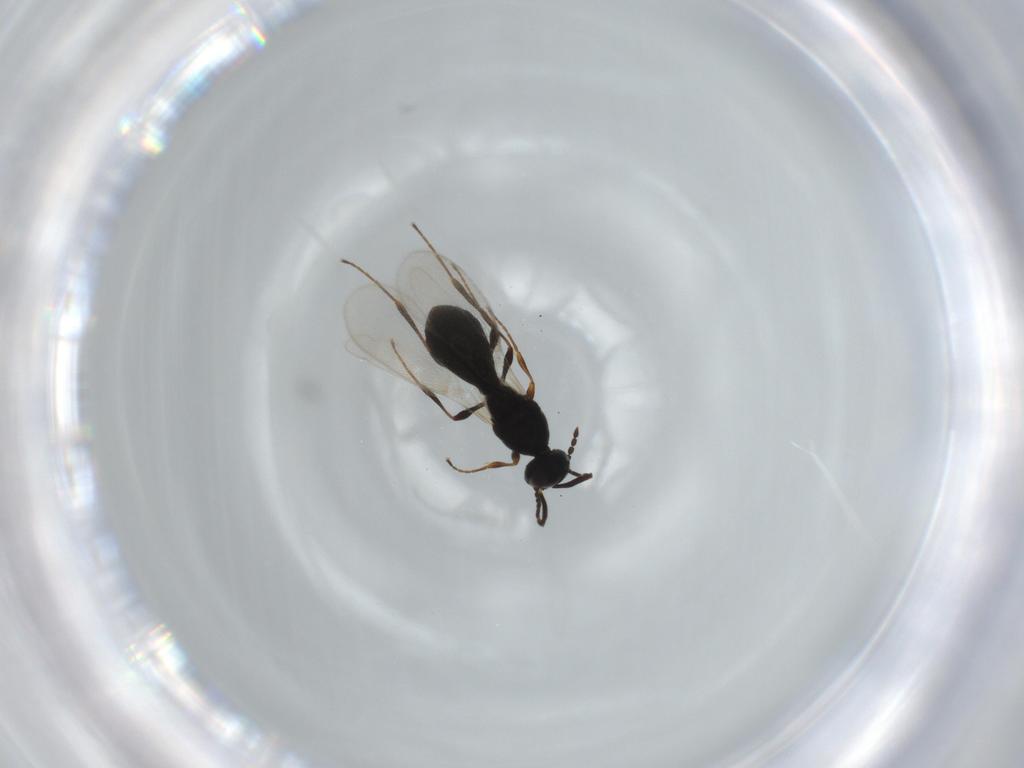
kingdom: Animalia
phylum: Arthropoda
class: Insecta
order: Diptera
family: Mythicomyiidae
